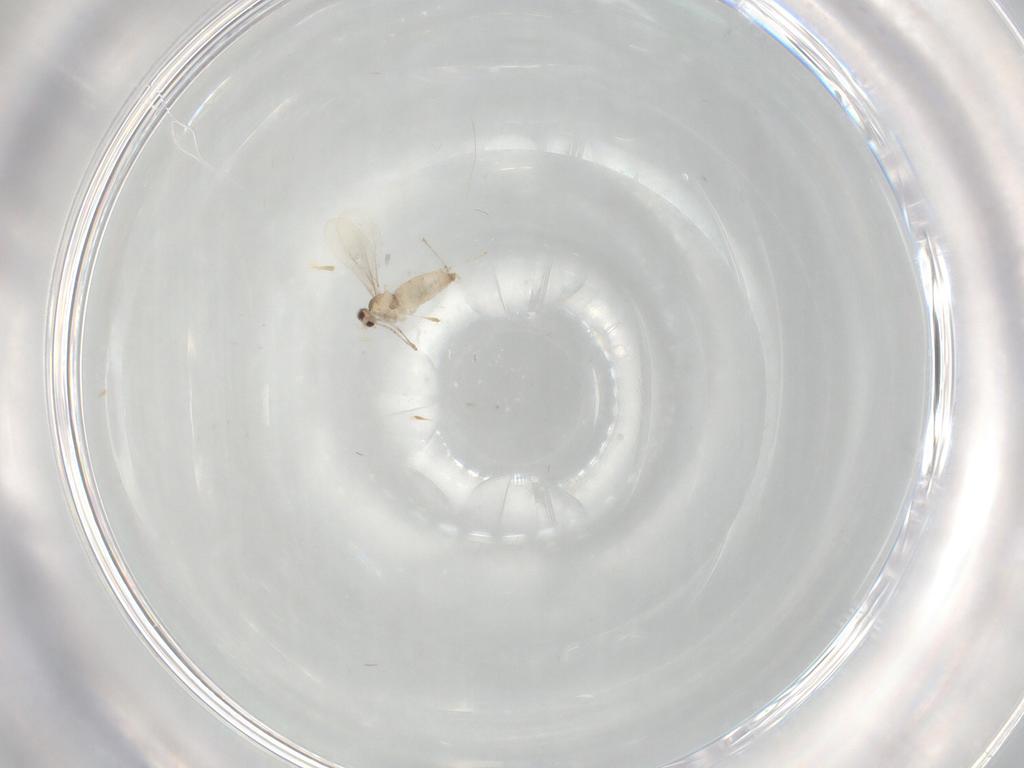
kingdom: Animalia
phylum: Arthropoda
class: Insecta
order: Diptera
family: Cecidomyiidae
